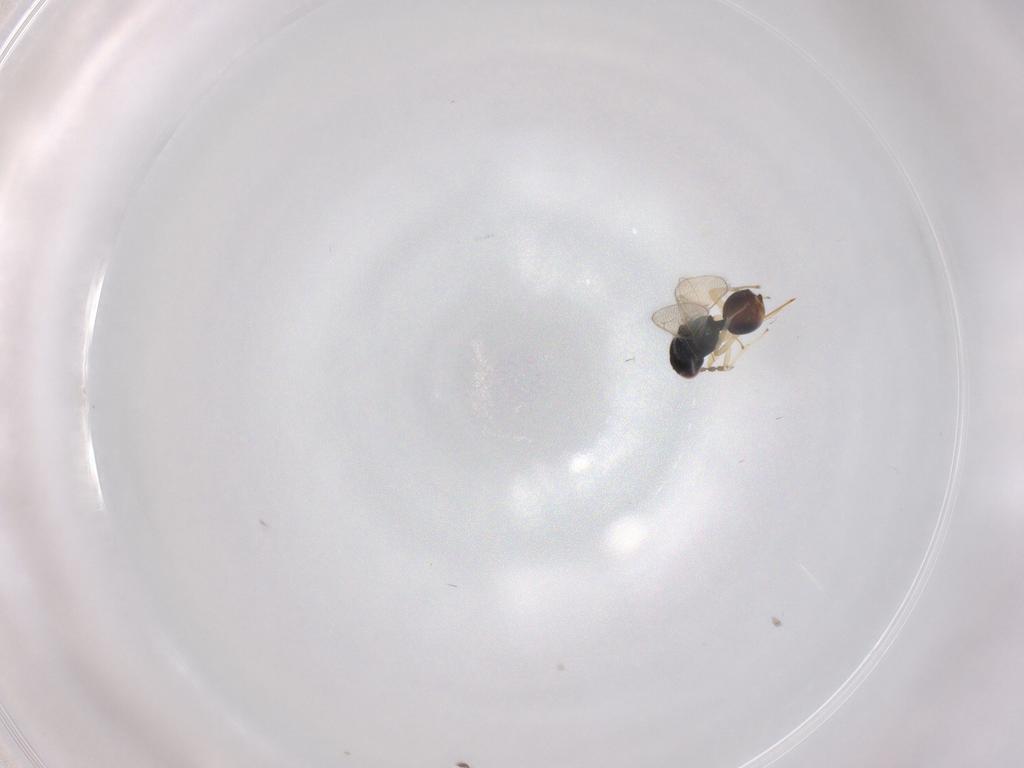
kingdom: Animalia
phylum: Arthropoda
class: Insecta
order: Hymenoptera
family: Eulophidae
